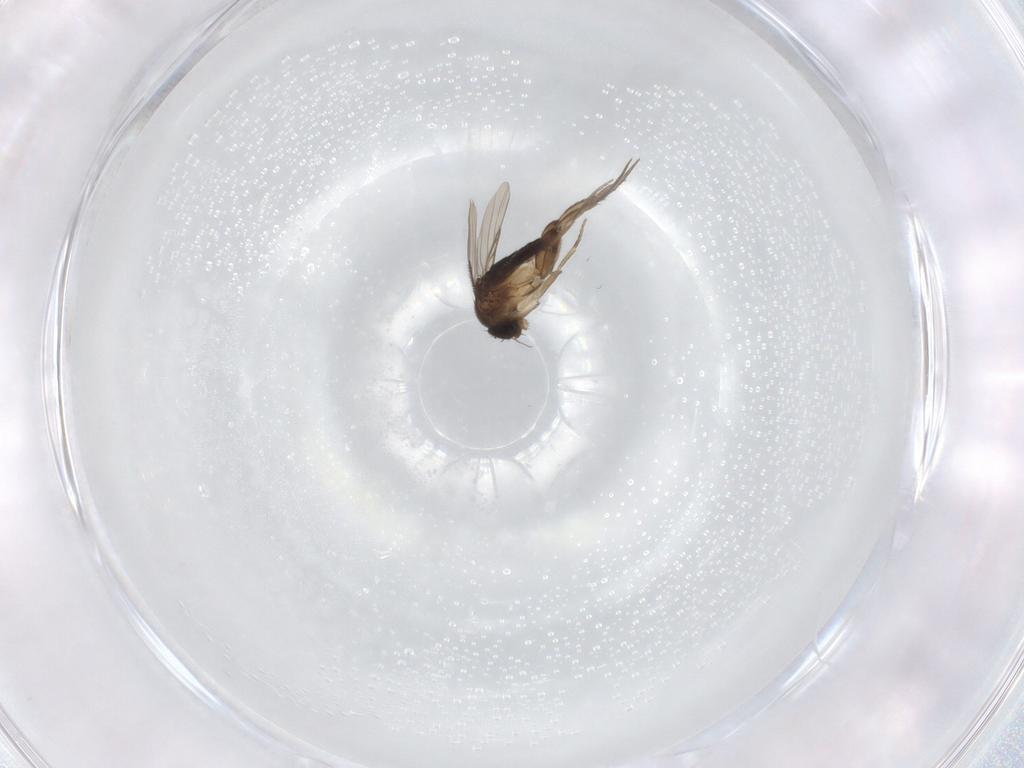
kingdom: Animalia
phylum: Arthropoda
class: Insecta
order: Diptera
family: Phoridae
